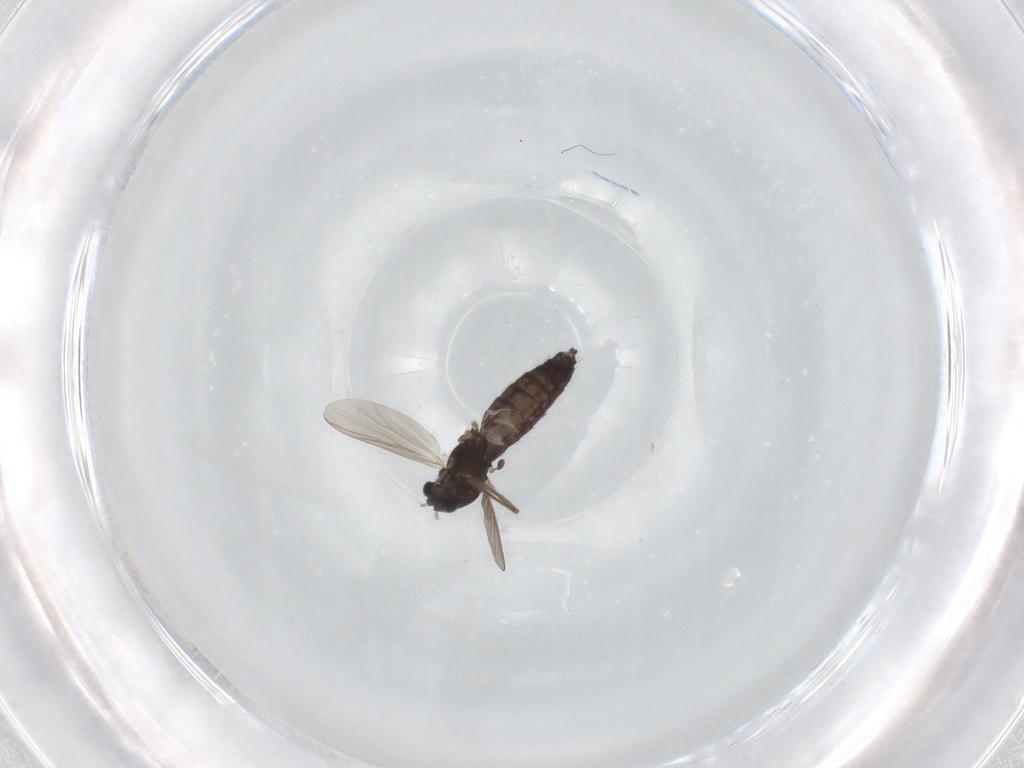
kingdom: Animalia
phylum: Arthropoda
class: Insecta
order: Diptera
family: Chironomidae
